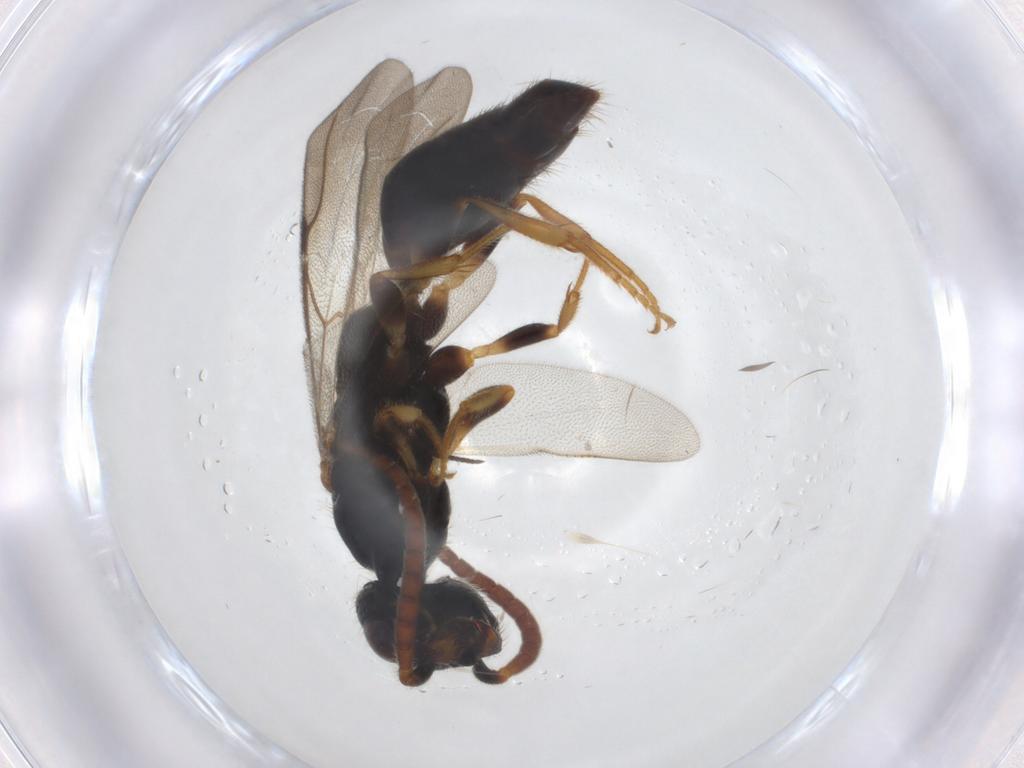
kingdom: Animalia
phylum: Arthropoda
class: Insecta
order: Hymenoptera
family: Bethylidae
